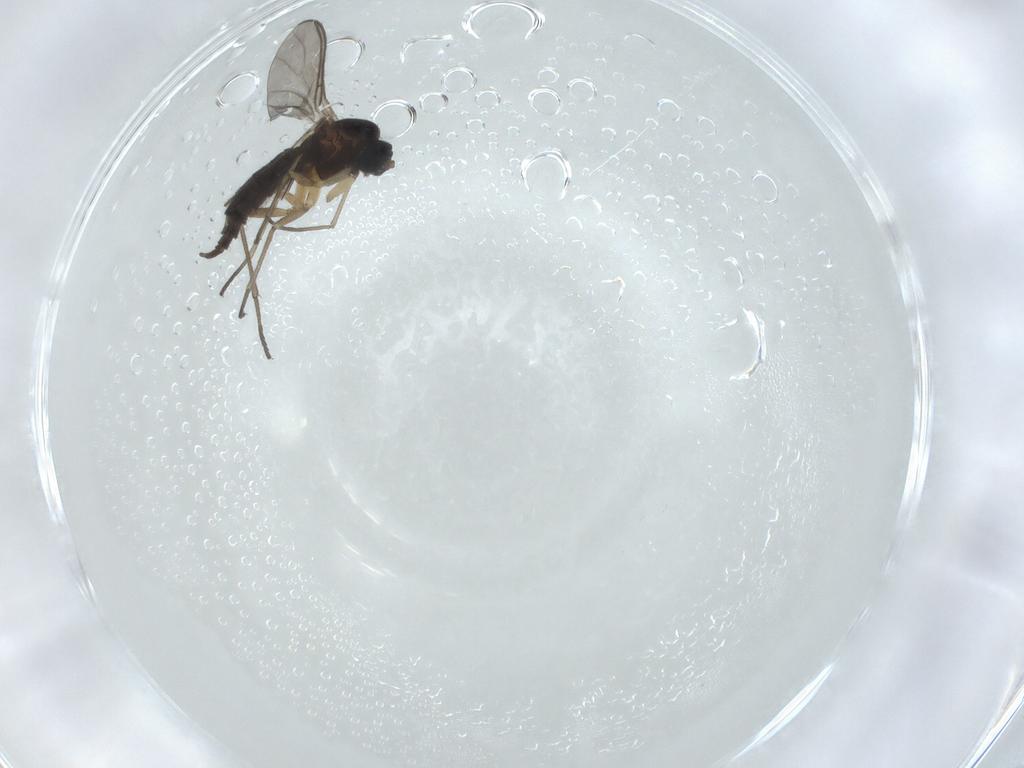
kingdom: Animalia
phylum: Arthropoda
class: Insecta
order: Diptera
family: Sciaridae
